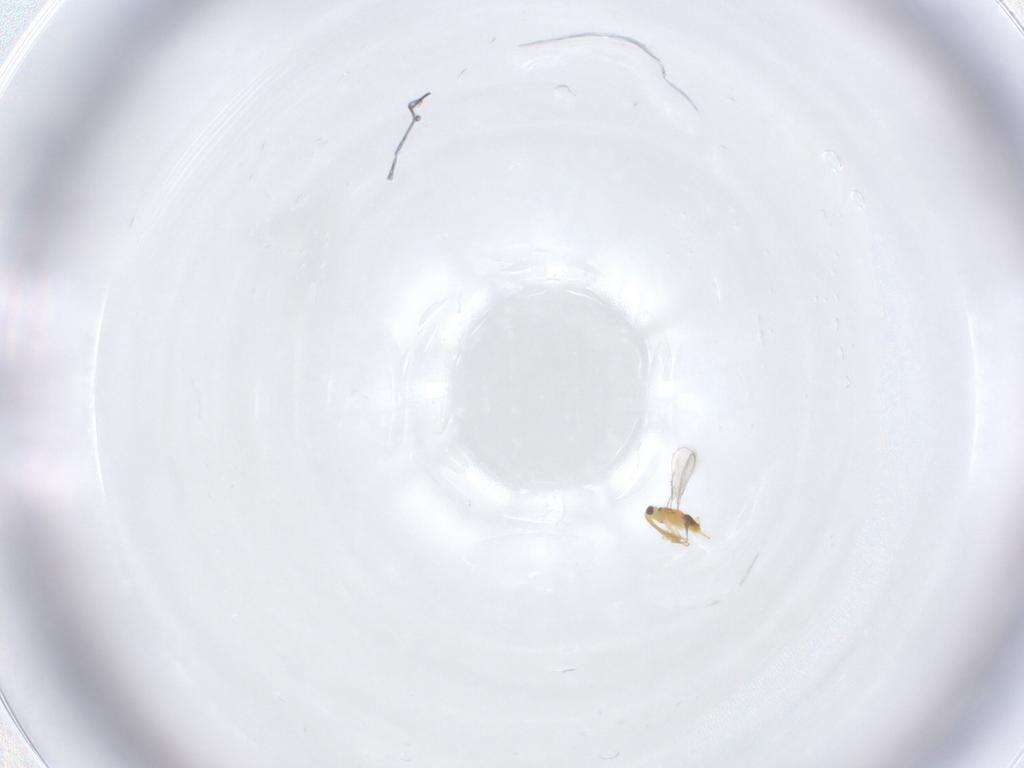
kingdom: Animalia
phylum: Arthropoda
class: Insecta
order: Hymenoptera
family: Aphelinidae
